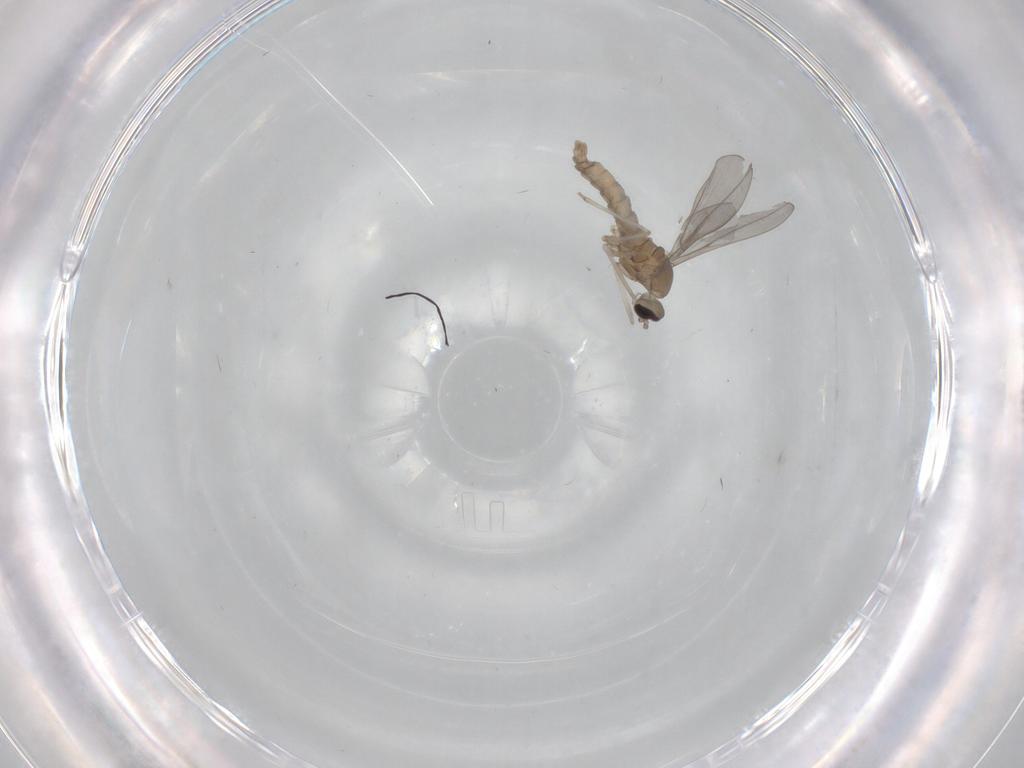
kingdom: Animalia
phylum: Arthropoda
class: Insecta
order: Diptera
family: Cecidomyiidae
